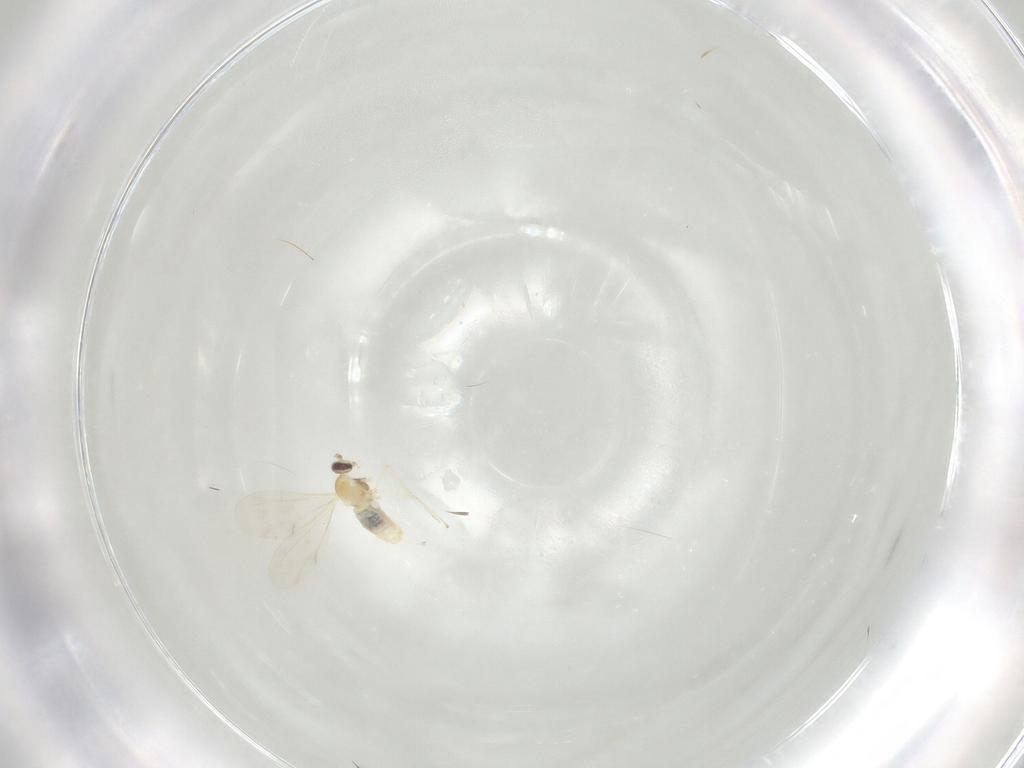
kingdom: Animalia
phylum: Arthropoda
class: Insecta
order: Diptera
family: Cecidomyiidae
